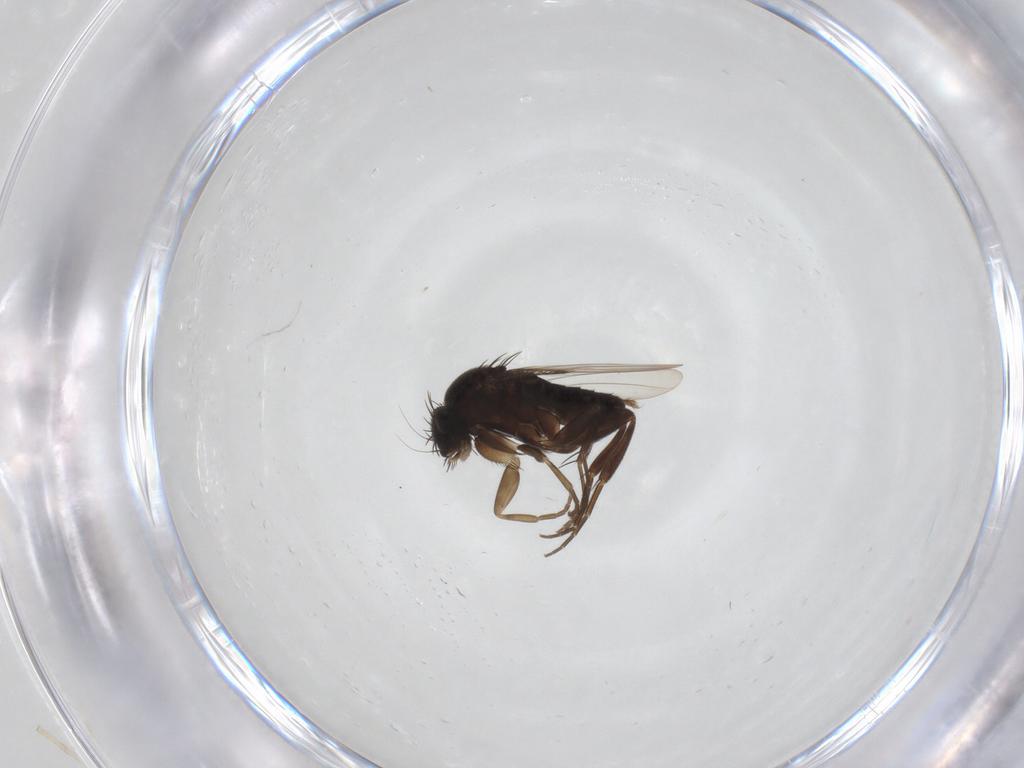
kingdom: Animalia
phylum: Arthropoda
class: Insecta
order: Diptera
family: Phoridae
